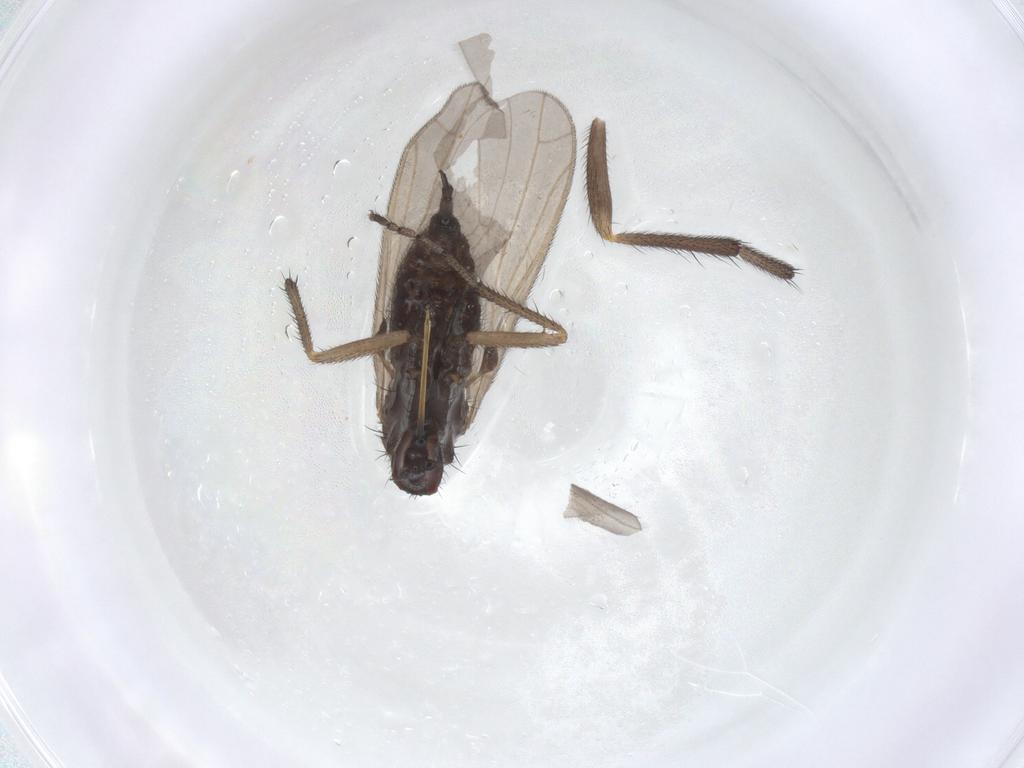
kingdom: Animalia
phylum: Arthropoda
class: Insecta
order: Diptera
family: Empididae
